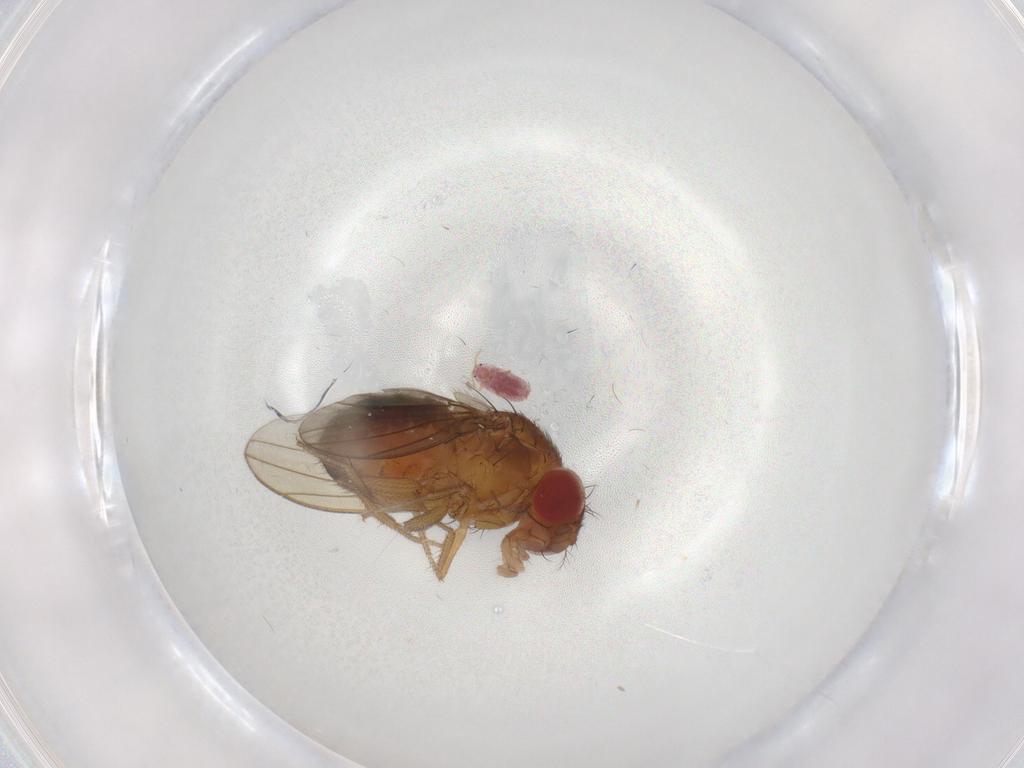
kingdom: Animalia
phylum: Arthropoda
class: Insecta
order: Diptera
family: Drosophilidae
